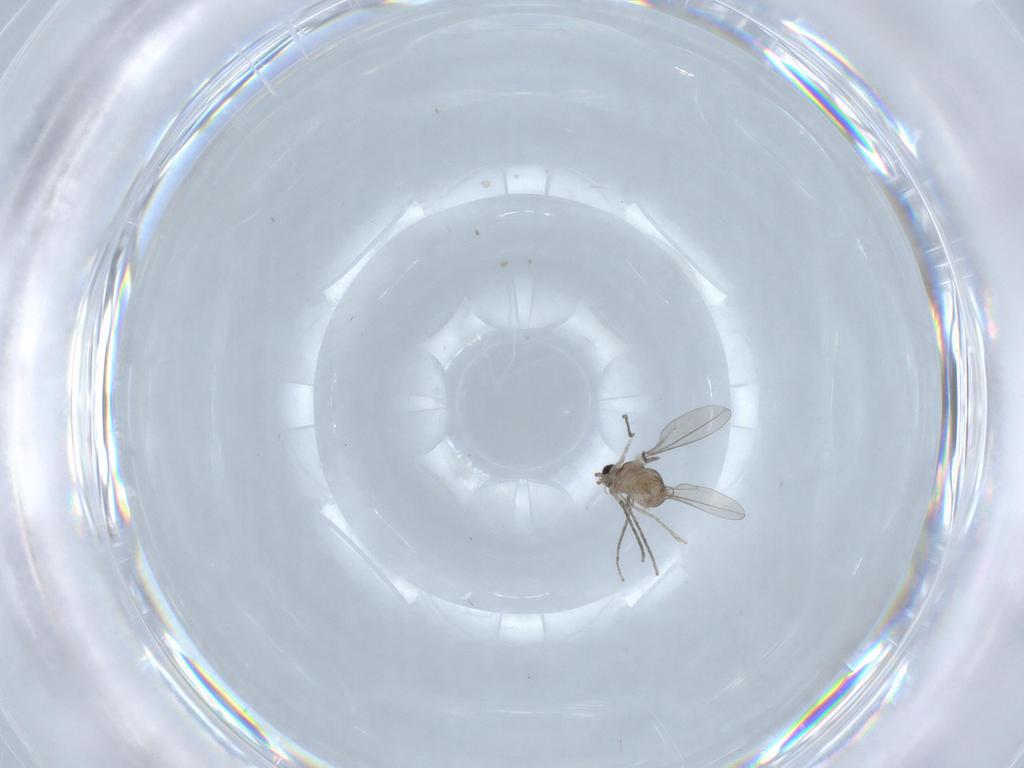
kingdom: Animalia
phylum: Arthropoda
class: Insecta
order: Diptera
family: Cecidomyiidae
